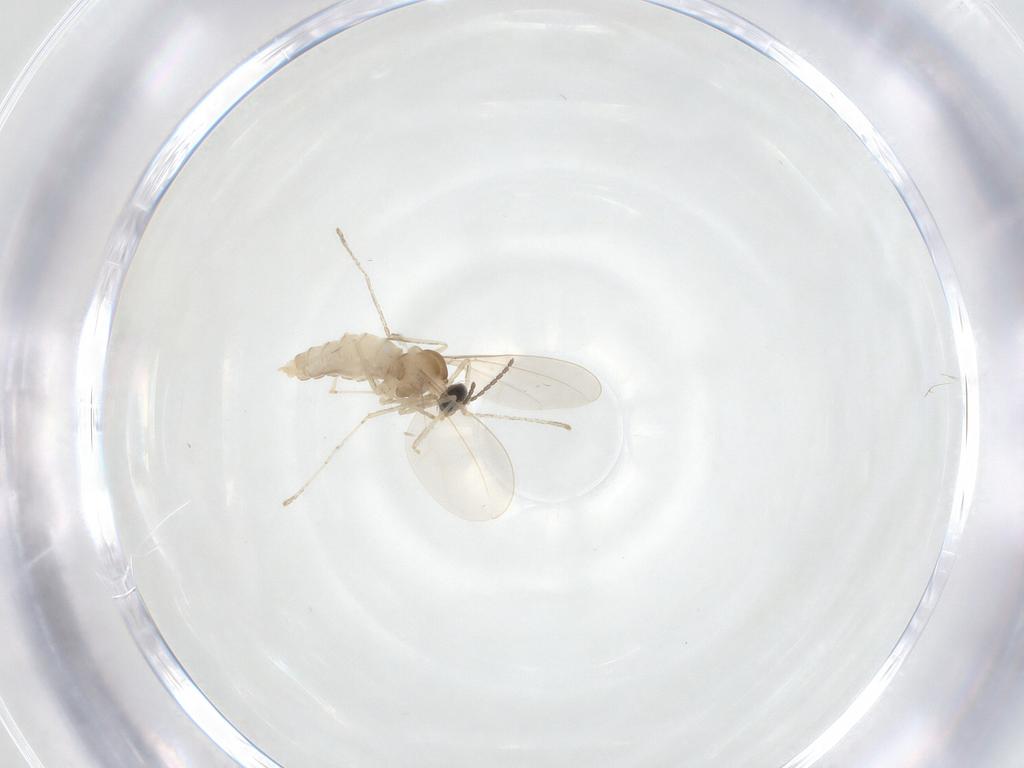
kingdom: Animalia
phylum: Arthropoda
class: Insecta
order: Diptera
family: Cecidomyiidae
